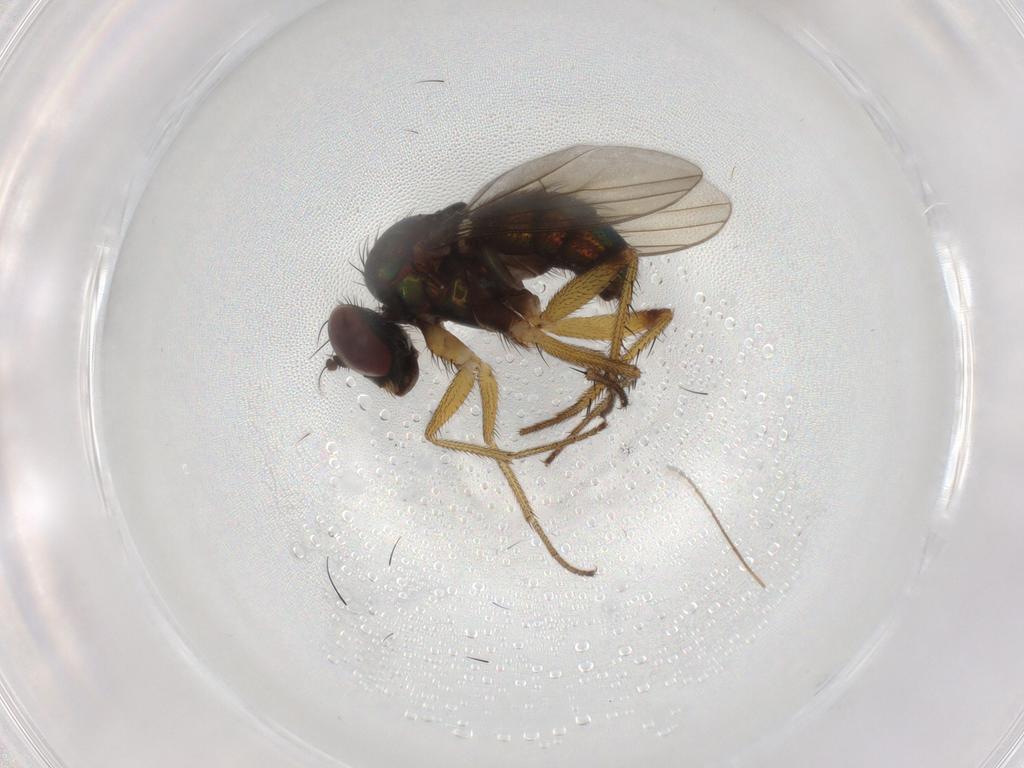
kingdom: Animalia
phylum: Arthropoda
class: Insecta
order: Diptera
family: Dolichopodidae
